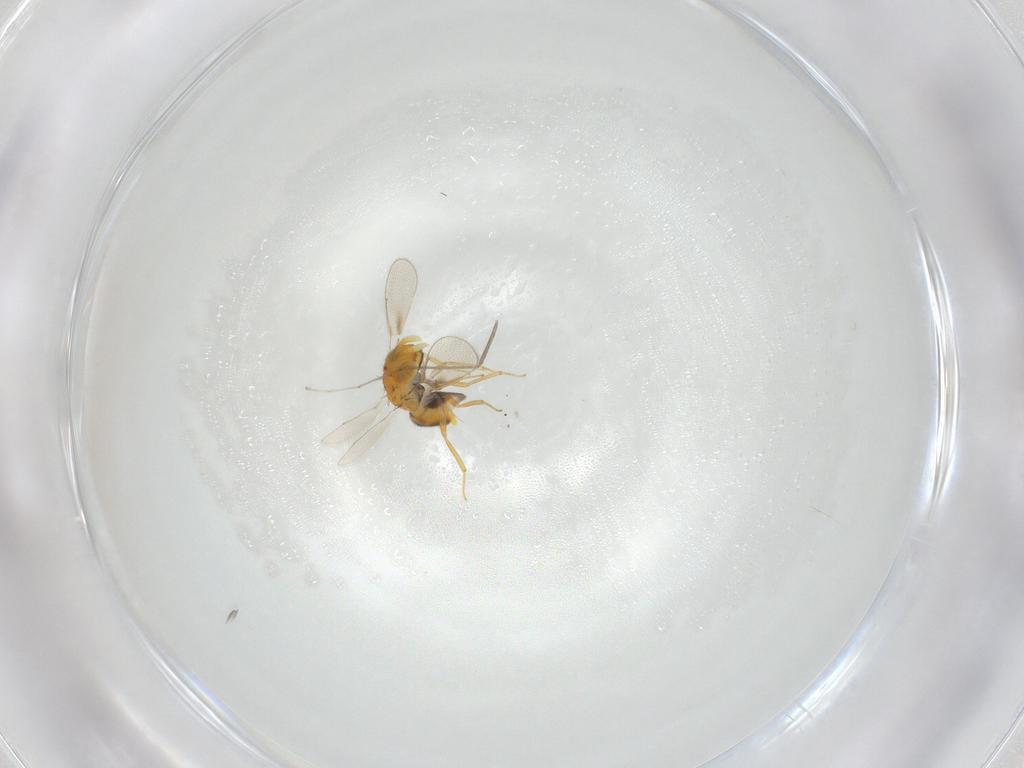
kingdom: Animalia
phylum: Arthropoda
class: Insecta
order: Hymenoptera
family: Trichogrammatidae
